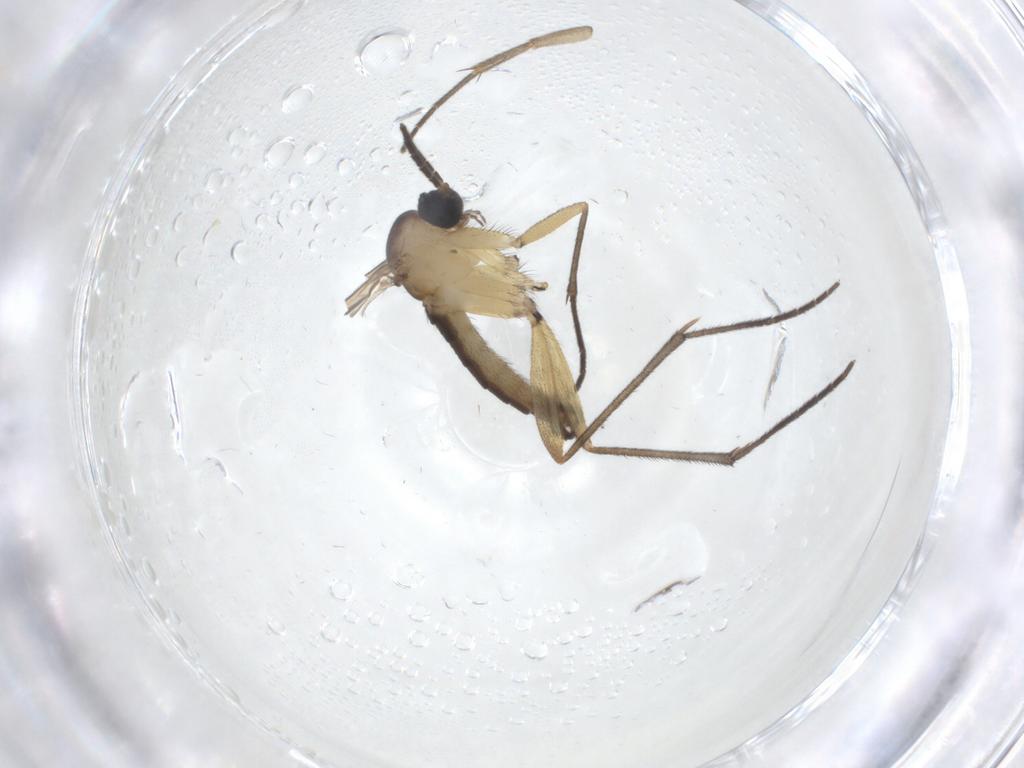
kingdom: Animalia
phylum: Arthropoda
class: Insecta
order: Diptera
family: Sciaridae
